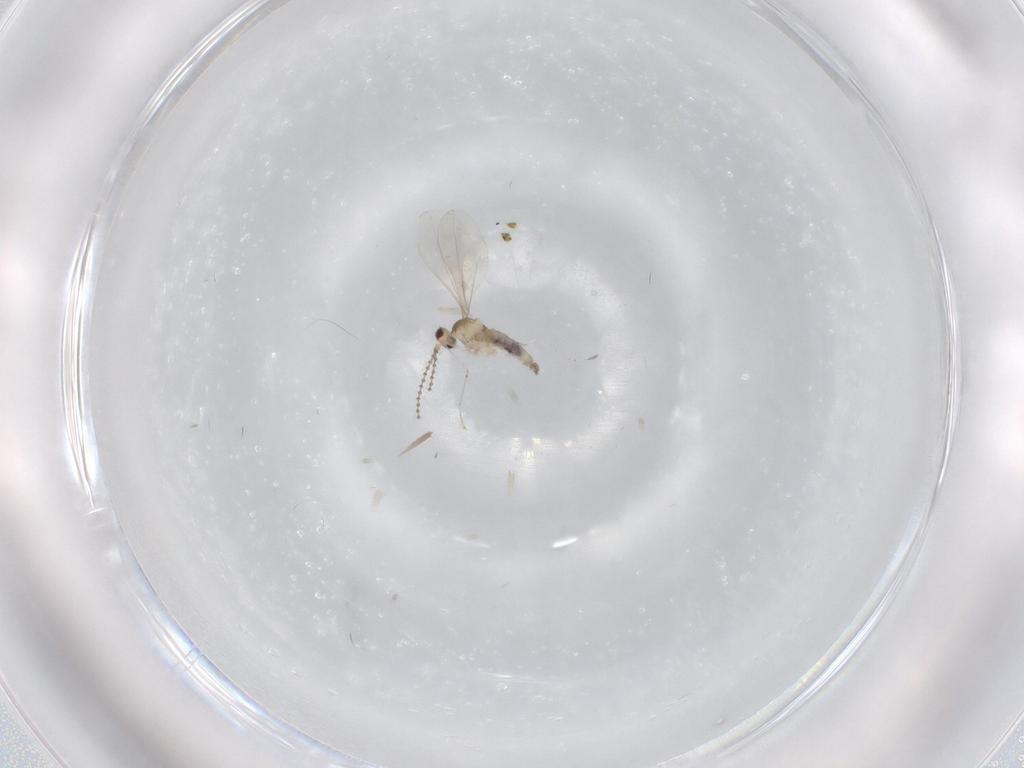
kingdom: Animalia
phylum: Arthropoda
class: Insecta
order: Diptera
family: Cecidomyiidae
